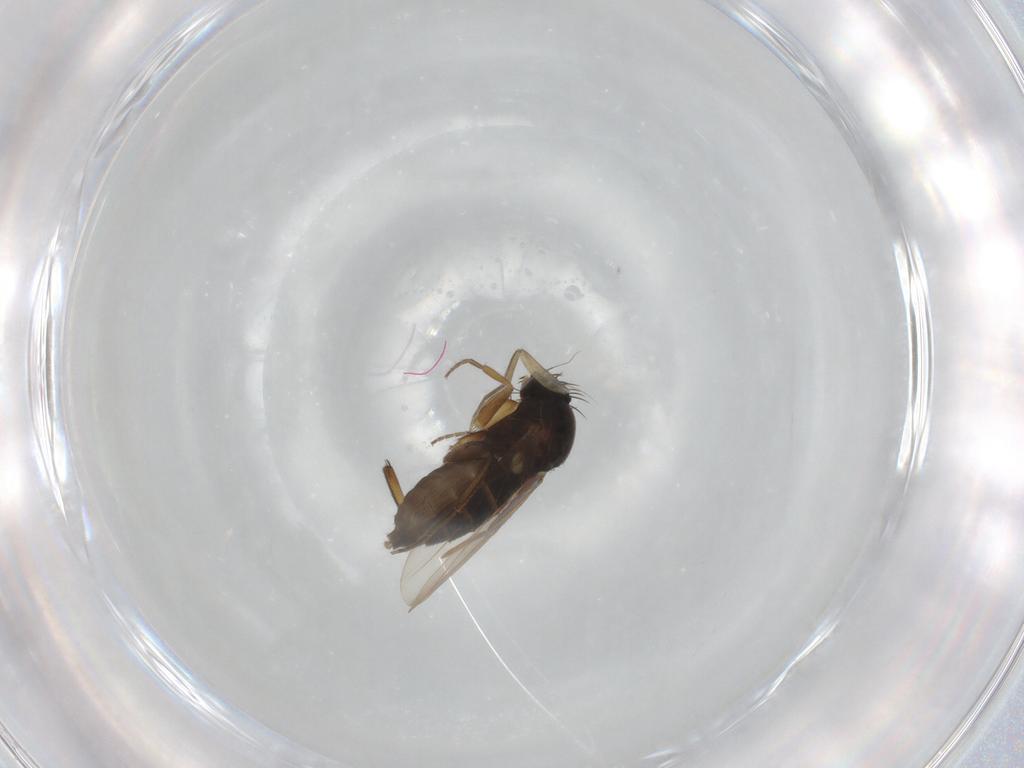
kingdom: Animalia
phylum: Arthropoda
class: Insecta
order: Diptera
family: Phoridae
